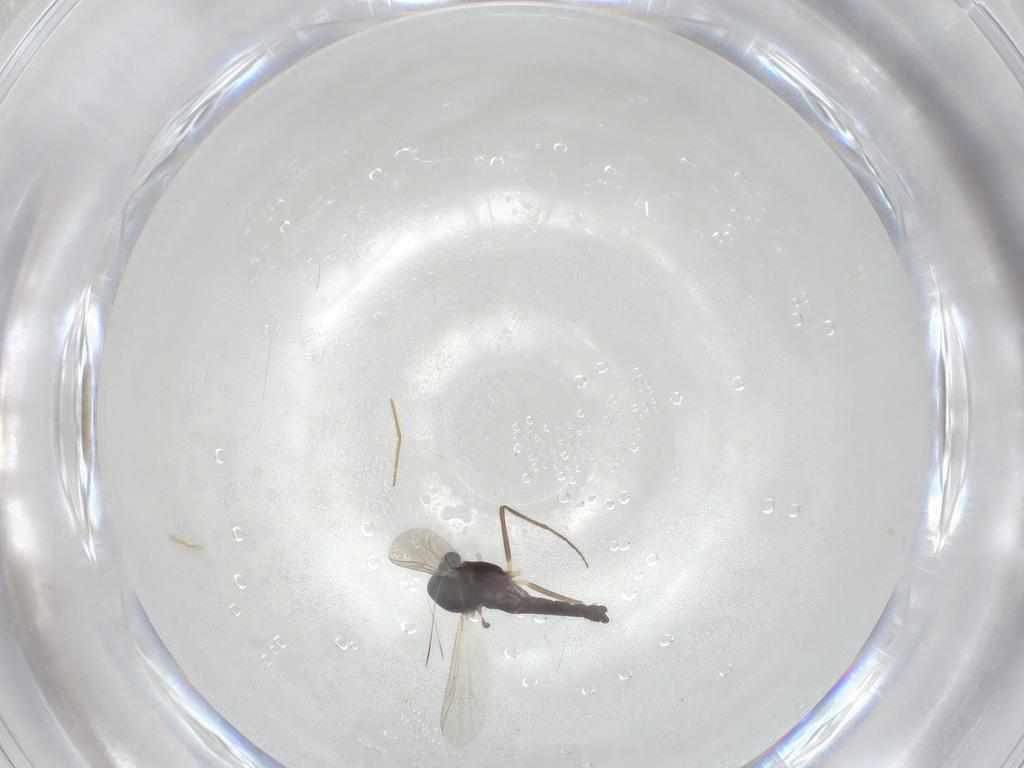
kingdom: Animalia
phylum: Arthropoda
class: Insecta
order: Diptera
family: Chironomidae
